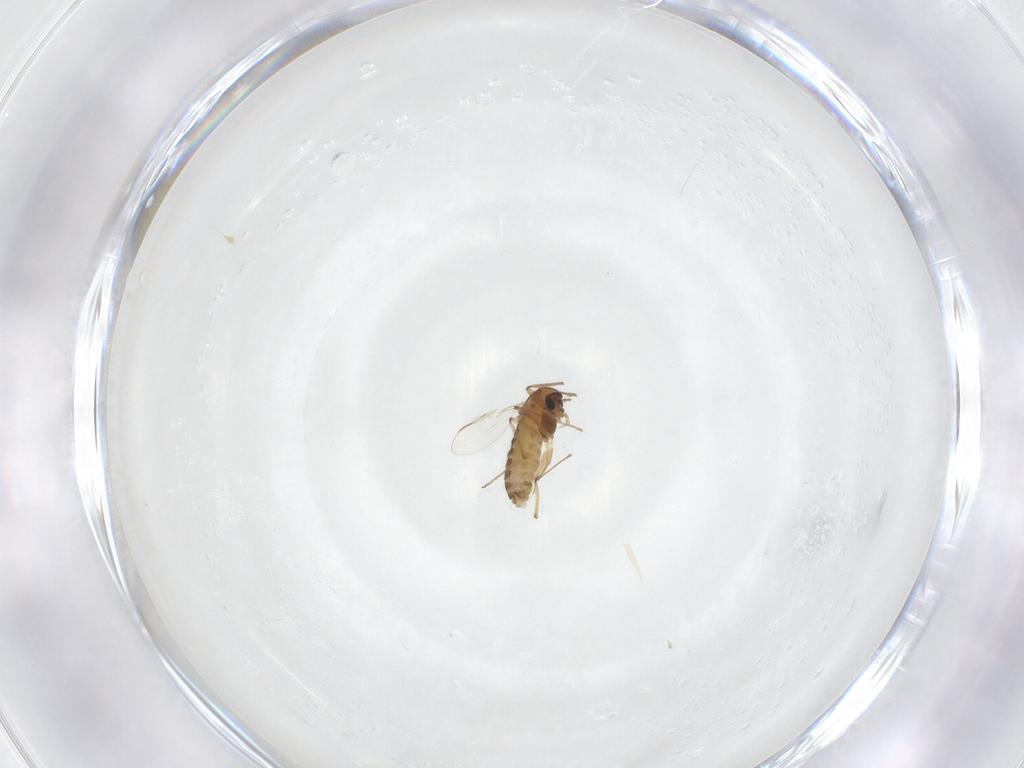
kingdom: Animalia
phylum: Arthropoda
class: Insecta
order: Diptera
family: Chironomidae
